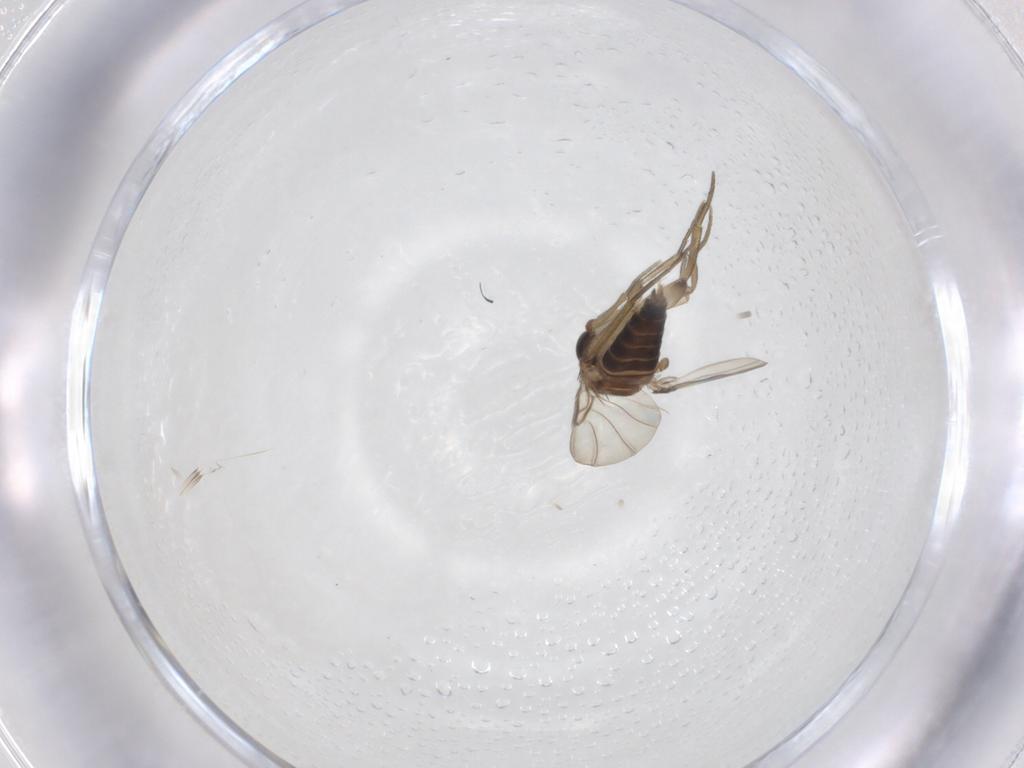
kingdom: Animalia
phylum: Arthropoda
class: Insecta
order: Diptera
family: Phoridae
